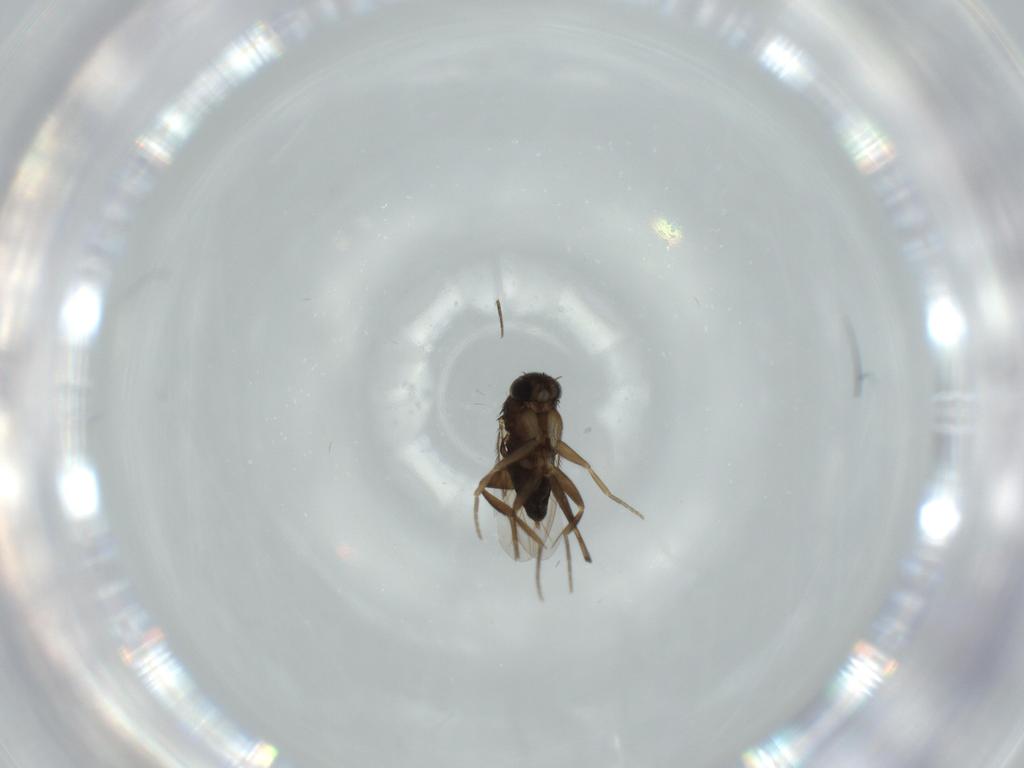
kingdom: Animalia
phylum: Arthropoda
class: Insecta
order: Diptera
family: Phoridae
